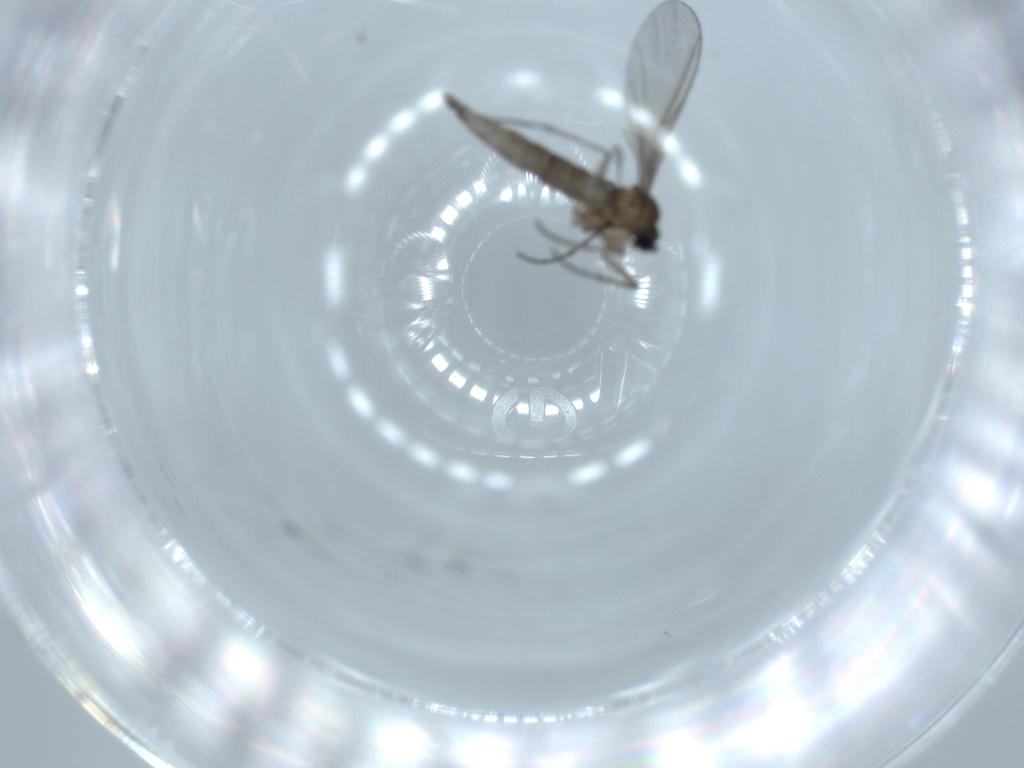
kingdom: Animalia
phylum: Arthropoda
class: Insecta
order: Diptera
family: Sciaridae
